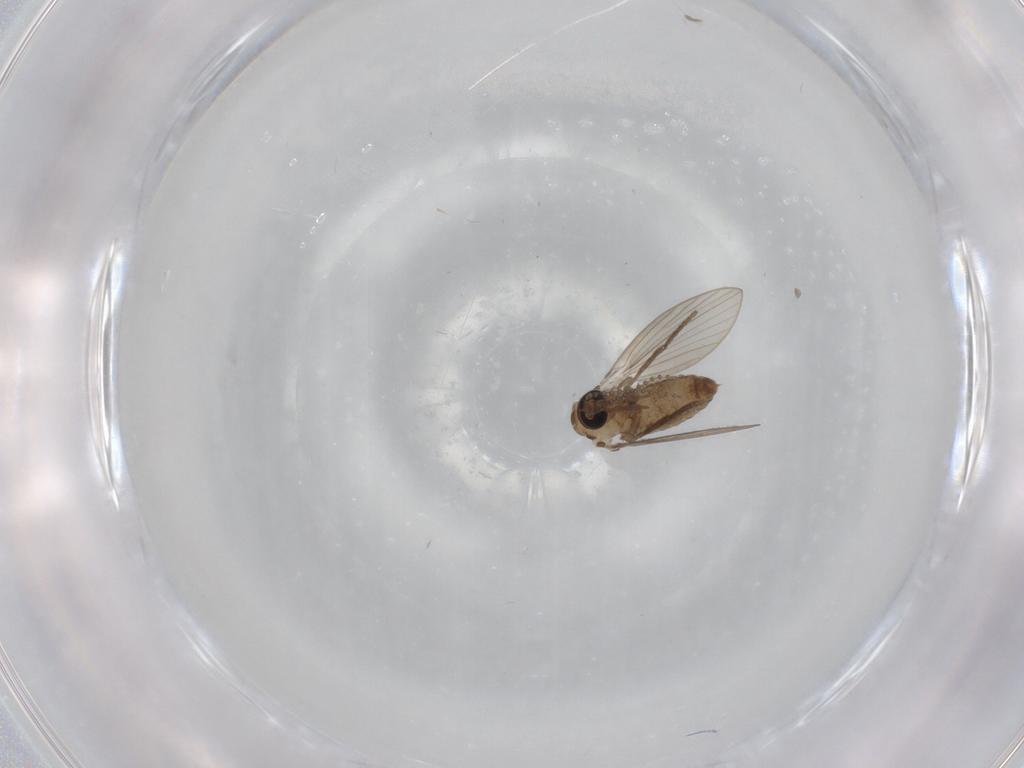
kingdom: Animalia
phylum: Arthropoda
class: Insecta
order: Diptera
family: Psychodidae
